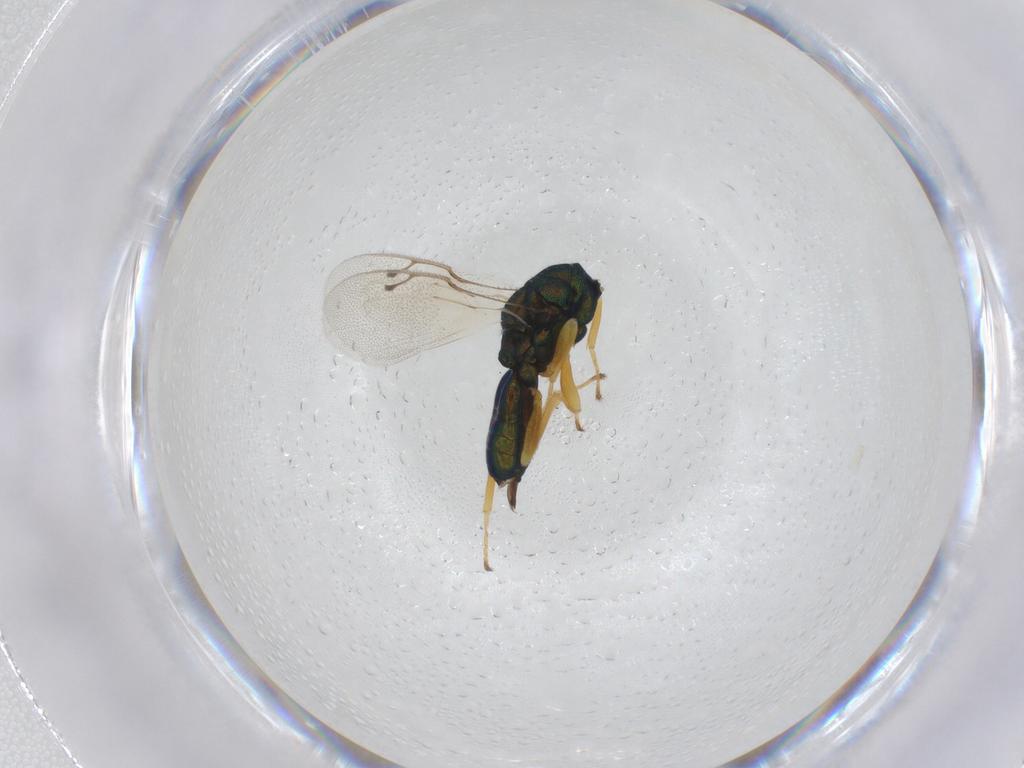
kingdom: Animalia
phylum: Arthropoda
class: Insecta
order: Hymenoptera
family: Pteromalidae
